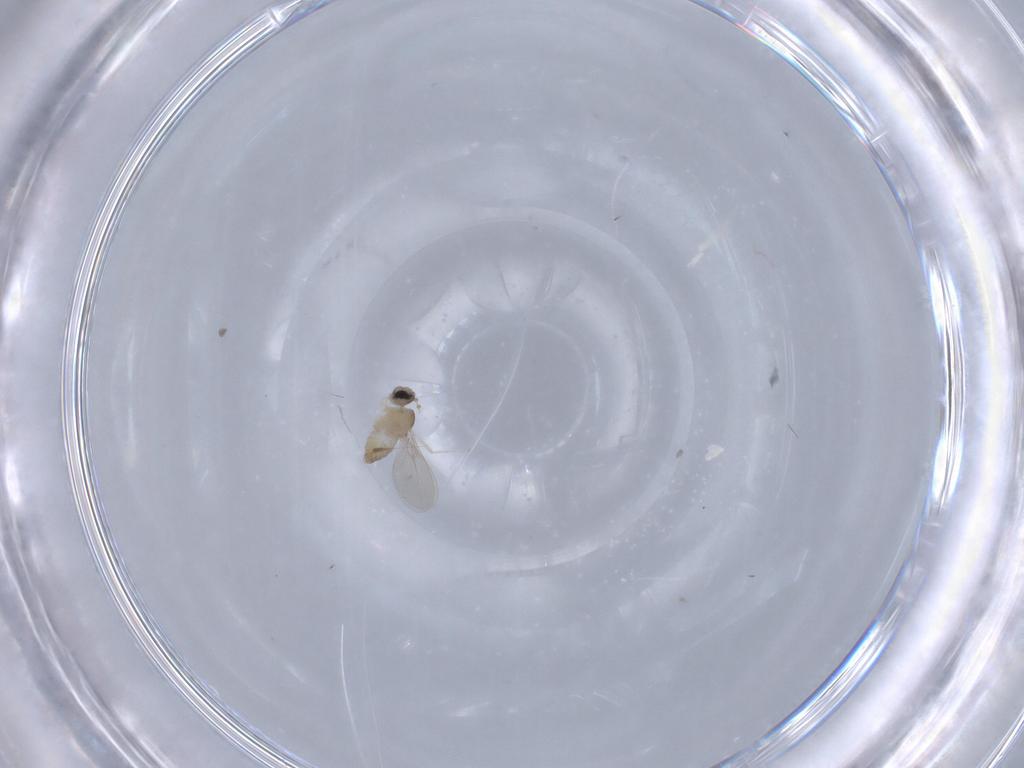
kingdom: Animalia
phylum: Arthropoda
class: Insecta
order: Diptera
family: Cecidomyiidae
